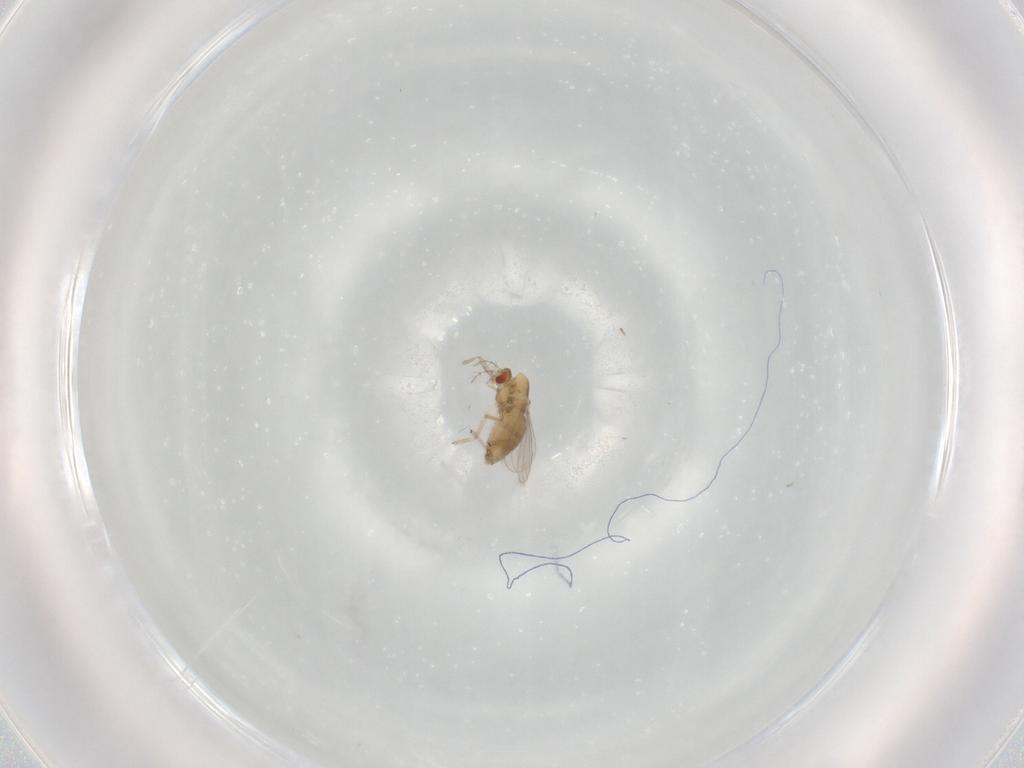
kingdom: Animalia
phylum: Arthropoda
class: Insecta
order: Diptera
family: Chironomidae
